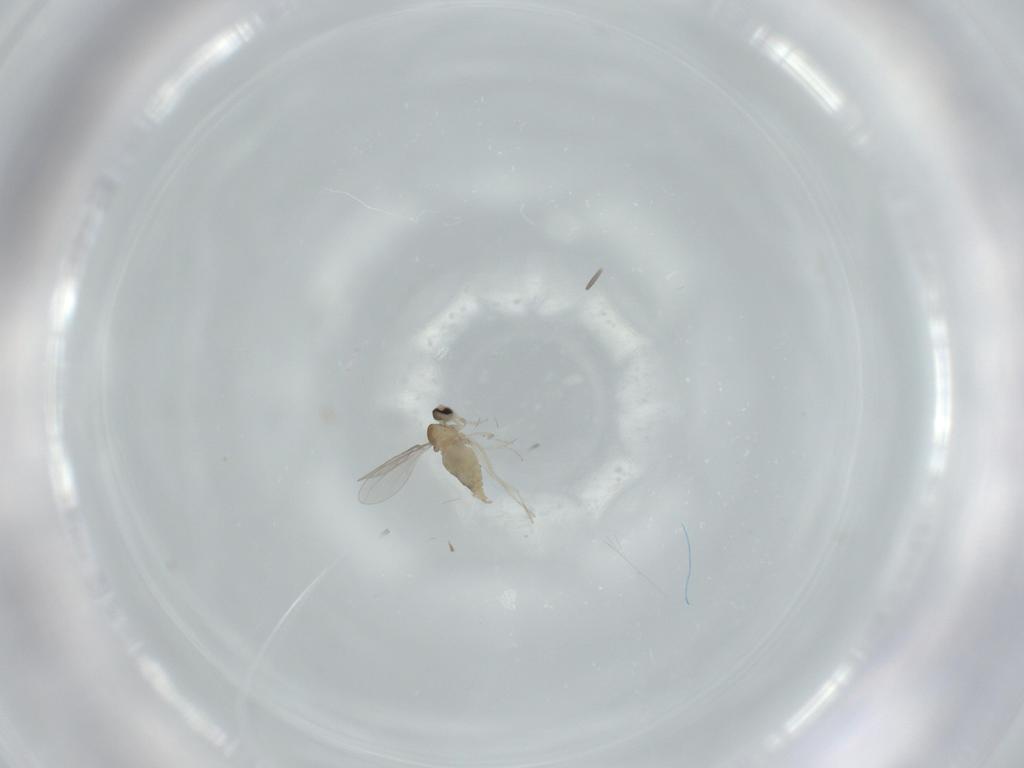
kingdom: Animalia
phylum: Arthropoda
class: Insecta
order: Diptera
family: Cecidomyiidae
